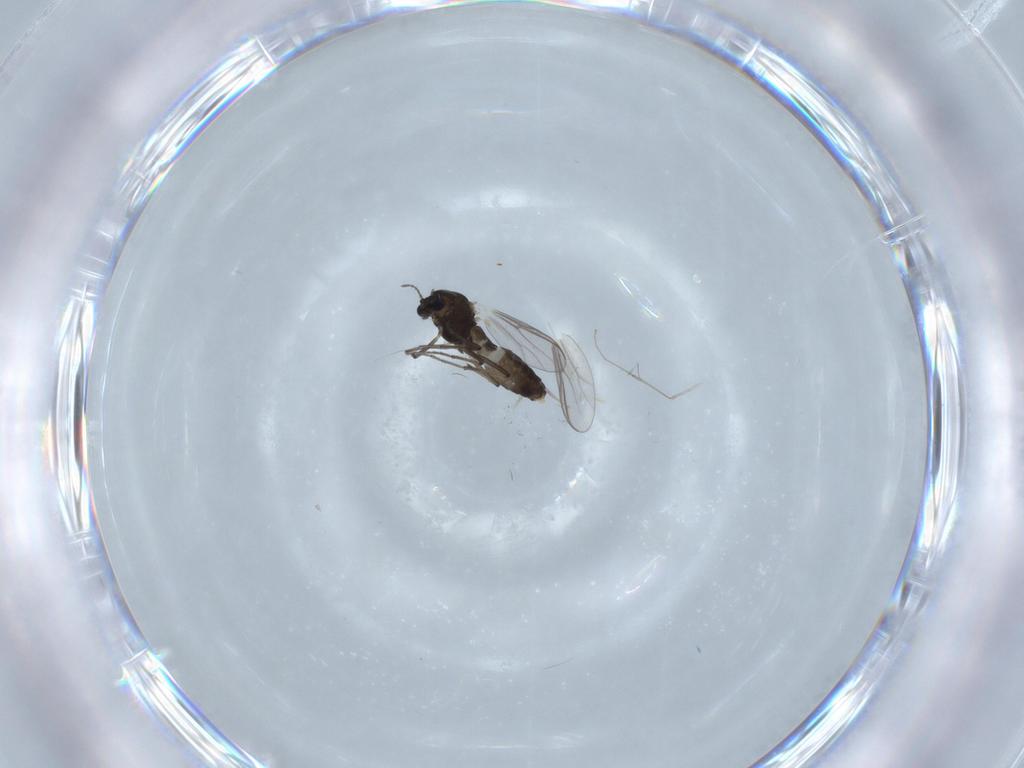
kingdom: Animalia
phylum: Arthropoda
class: Insecta
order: Diptera
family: Chironomidae
